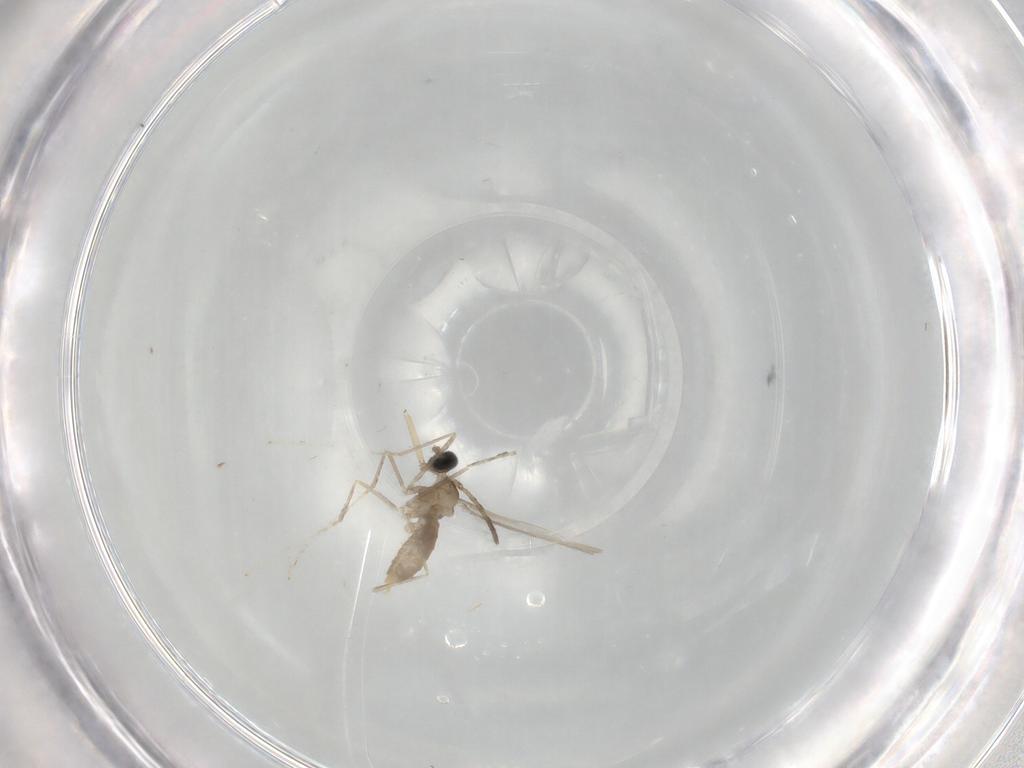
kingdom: Animalia
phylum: Arthropoda
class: Insecta
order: Diptera
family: Cecidomyiidae
